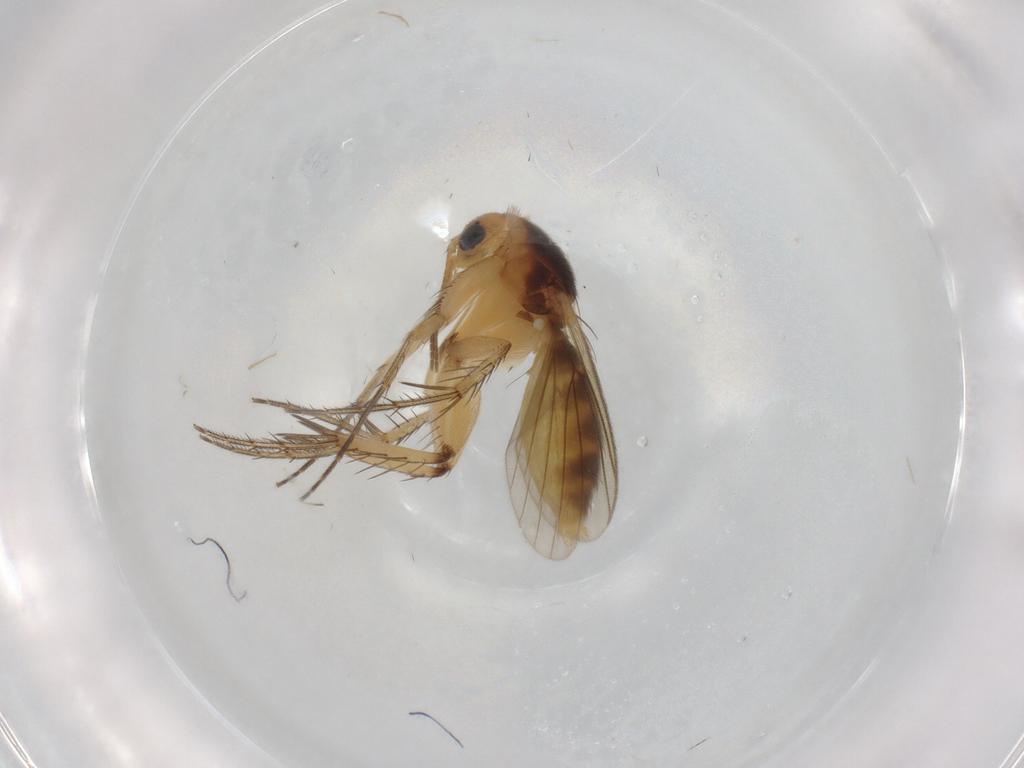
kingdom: Animalia
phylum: Arthropoda
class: Insecta
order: Diptera
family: Mycetophilidae
